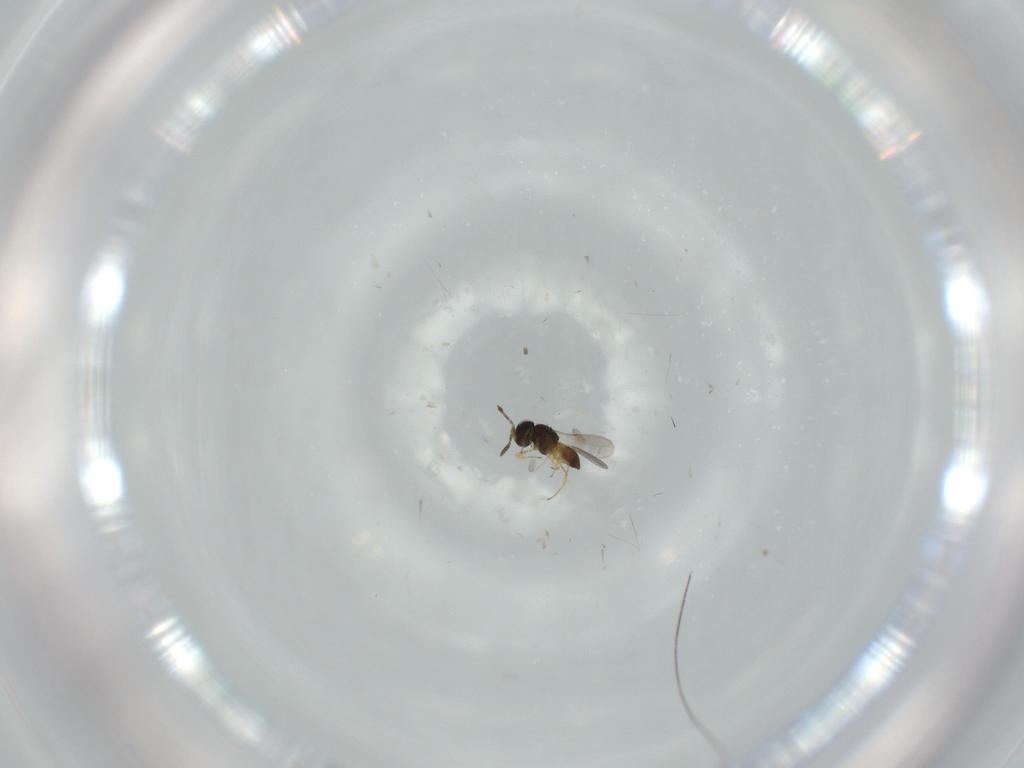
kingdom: Animalia
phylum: Arthropoda
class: Insecta
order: Hymenoptera
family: Scelionidae
